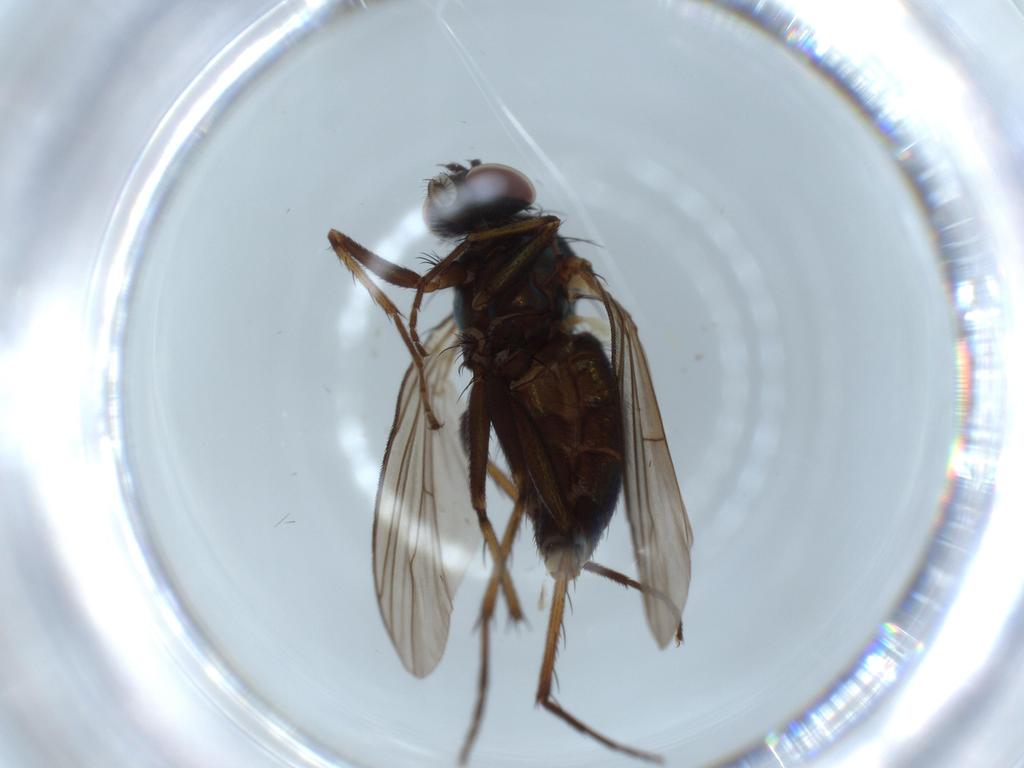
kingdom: Animalia
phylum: Arthropoda
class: Insecta
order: Diptera
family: Dolichopodidae
